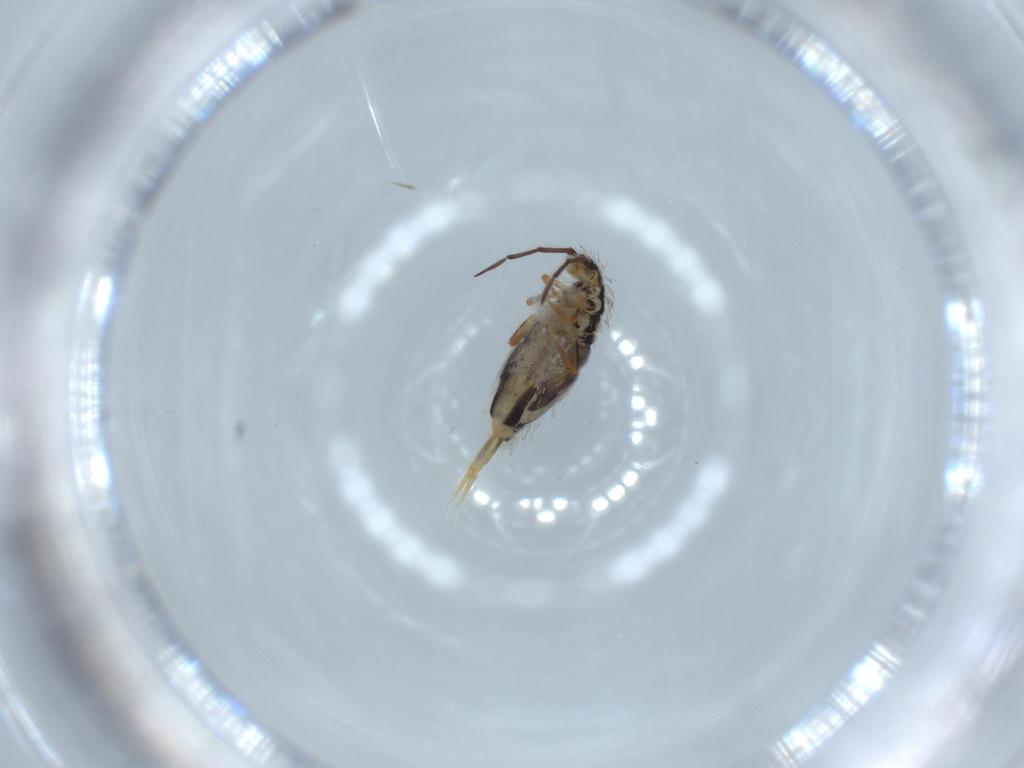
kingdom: Animalia
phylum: Arthropoda
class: Collembola
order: Entomobryomorpha
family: Entomobryidae
